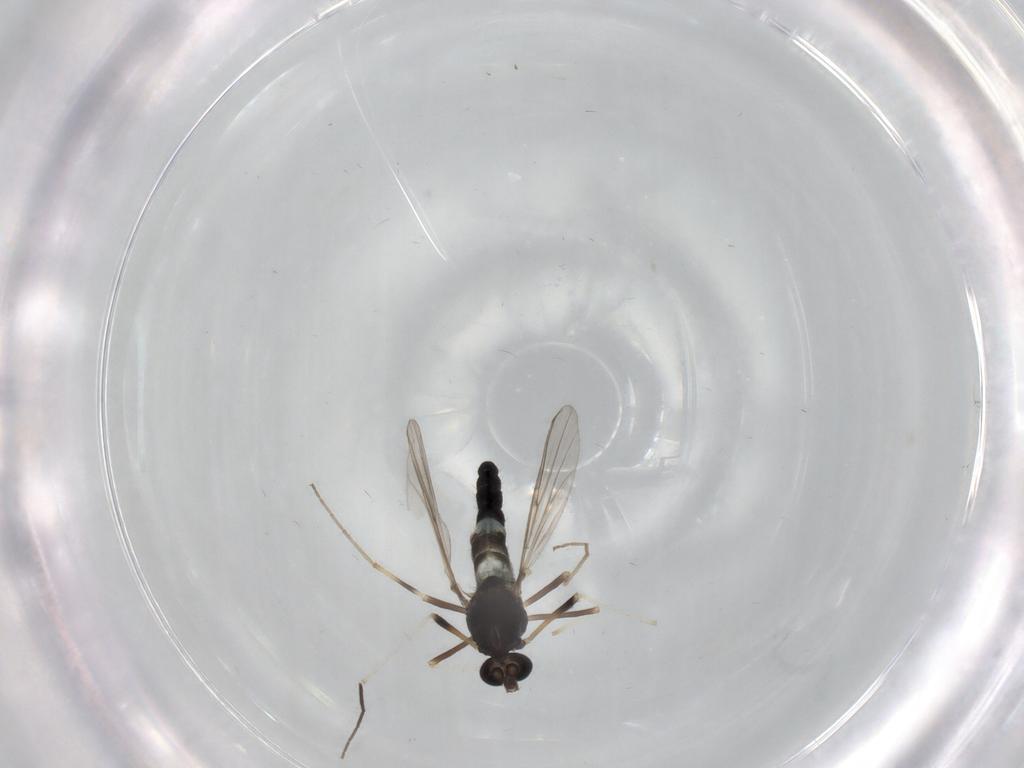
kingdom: Animalia
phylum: Arthropoda
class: Insecta
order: Diptera
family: Chironomidae
